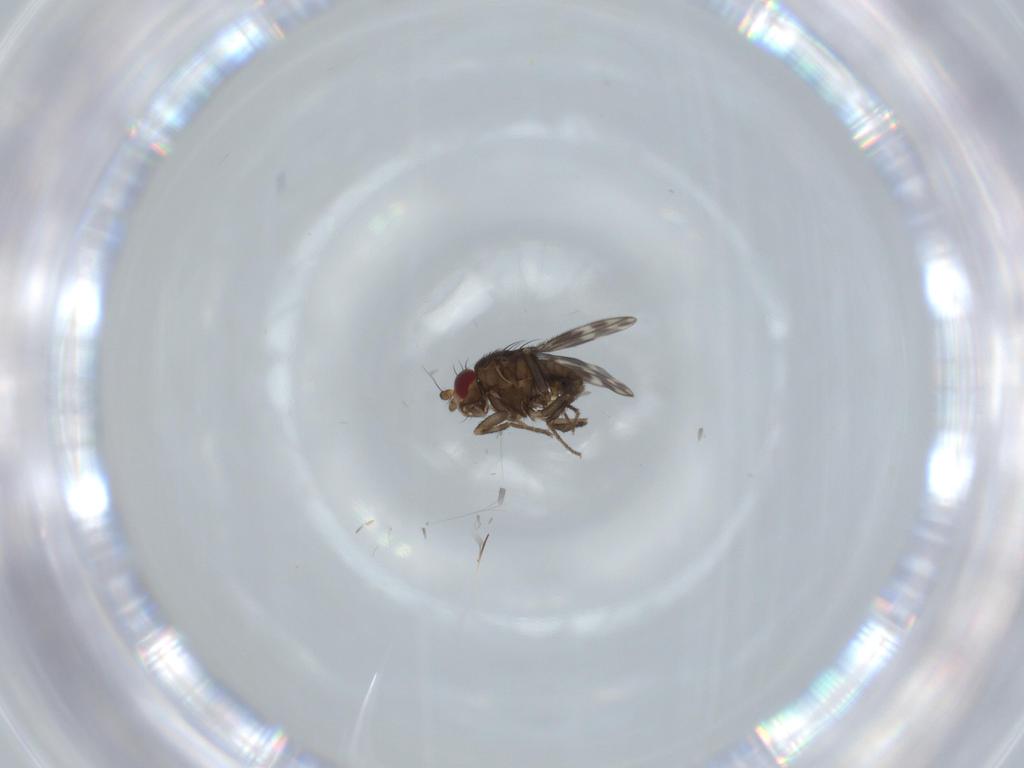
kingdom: Animalia
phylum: Arthropoda
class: Insecta
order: Diptera
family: Sphaeroceridae
